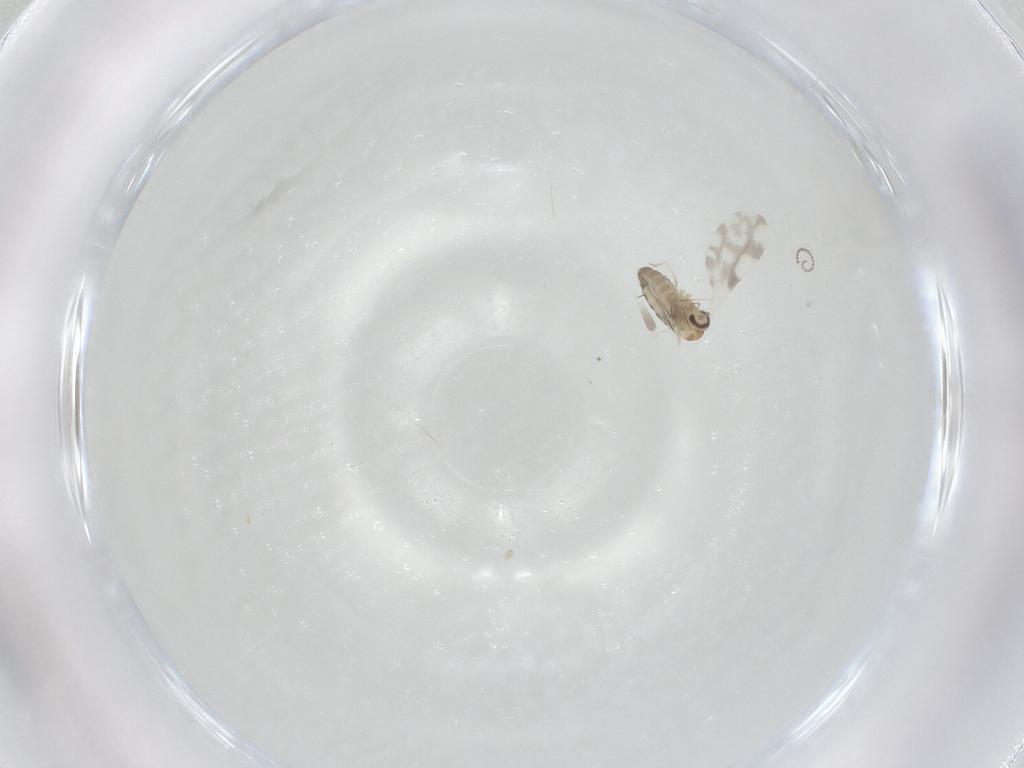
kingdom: Animalia
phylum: Arthropoda
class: Insecta
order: Diptera
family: Cecidomyiidae
